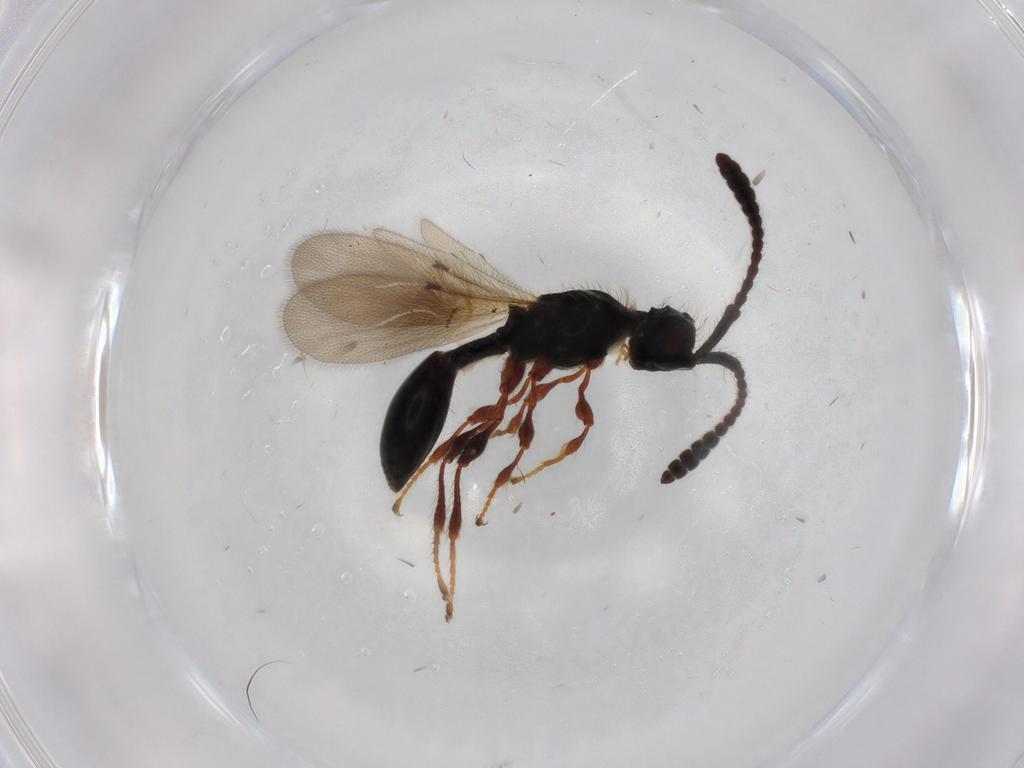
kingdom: Animalia
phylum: Arthropoda
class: Insecta
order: Hymenoptera
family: Diapriidae
